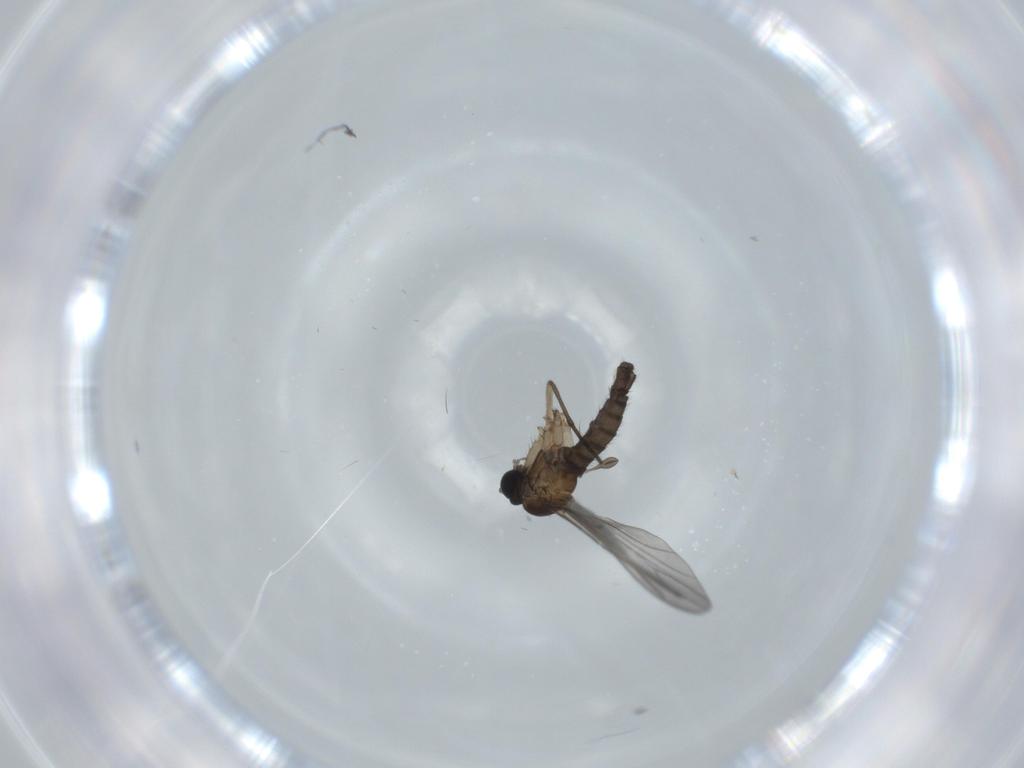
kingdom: Animalia
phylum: Arthropoda
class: Insecta
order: Diptera
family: Sciaridae
